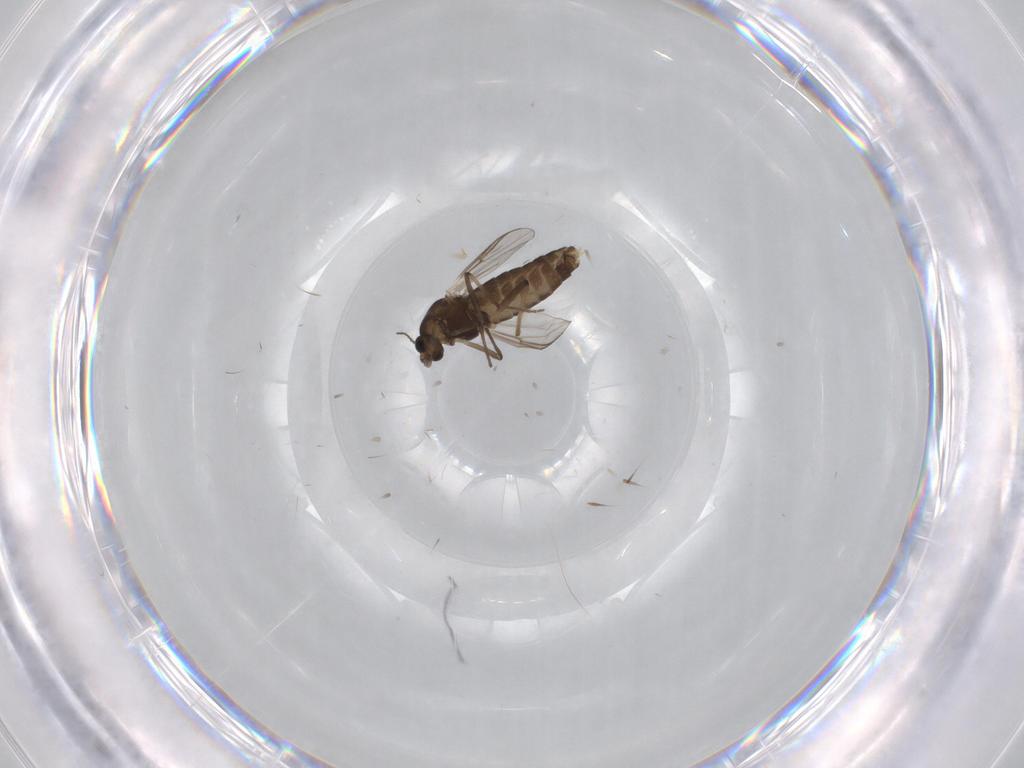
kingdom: Animalia
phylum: Arthropoda
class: Insecta
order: Diptera
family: Chironomidae
